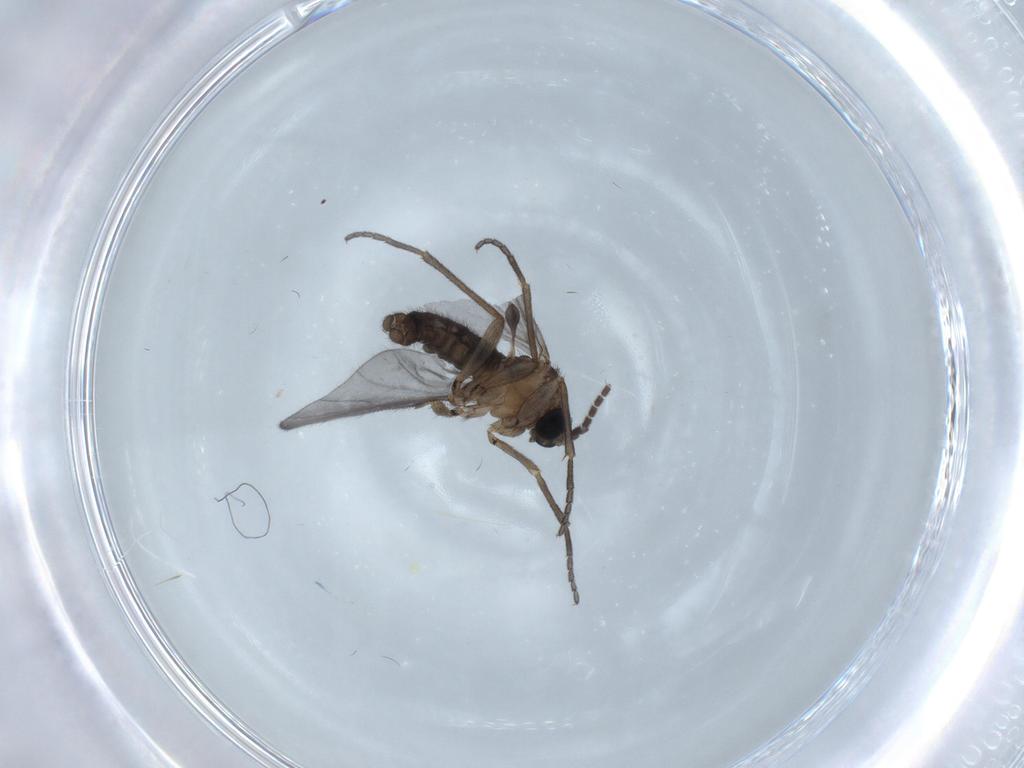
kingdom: Animalia
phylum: Arthropoda
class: Insecta
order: Diptera
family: Sciaridae
